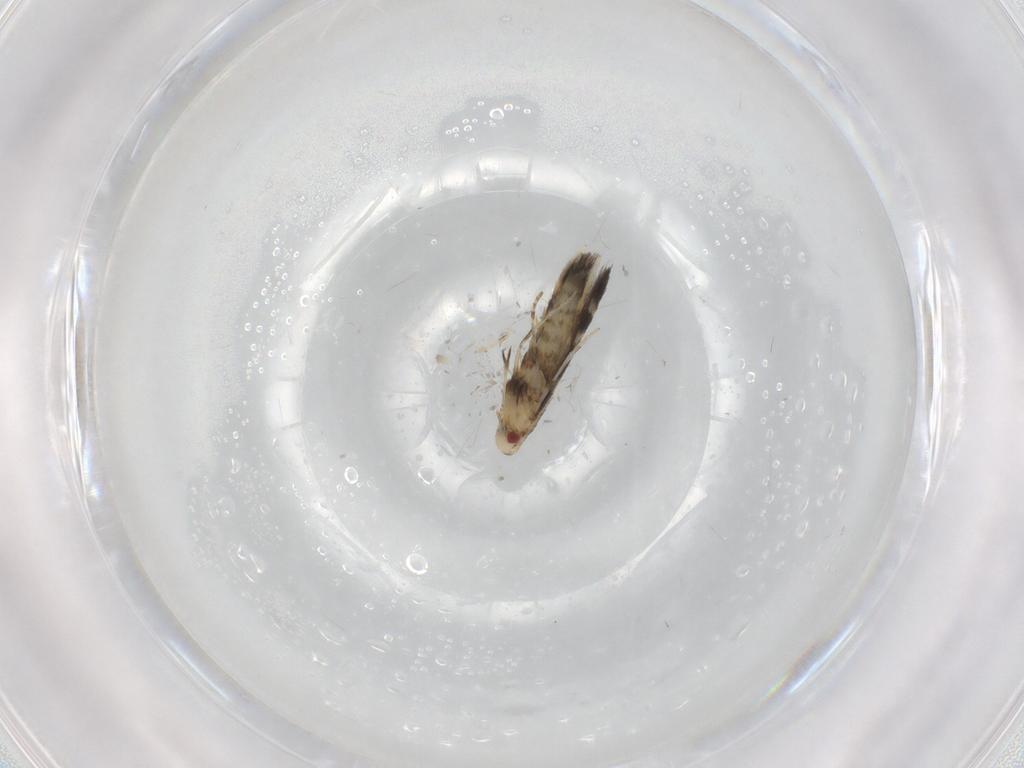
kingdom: Animalia
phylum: Arthropoda
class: Insecta
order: Lepidoptera
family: Gracillariidae
